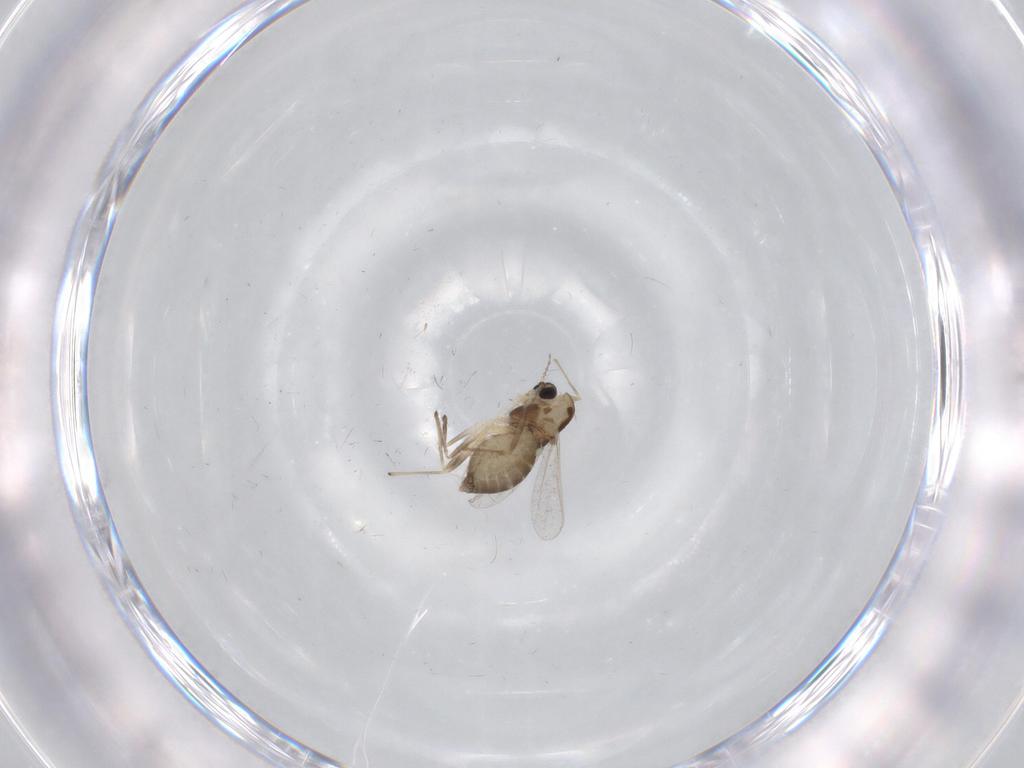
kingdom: Animalia
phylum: Arthropoda
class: Insecta
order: Diptera
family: Chironomidae
